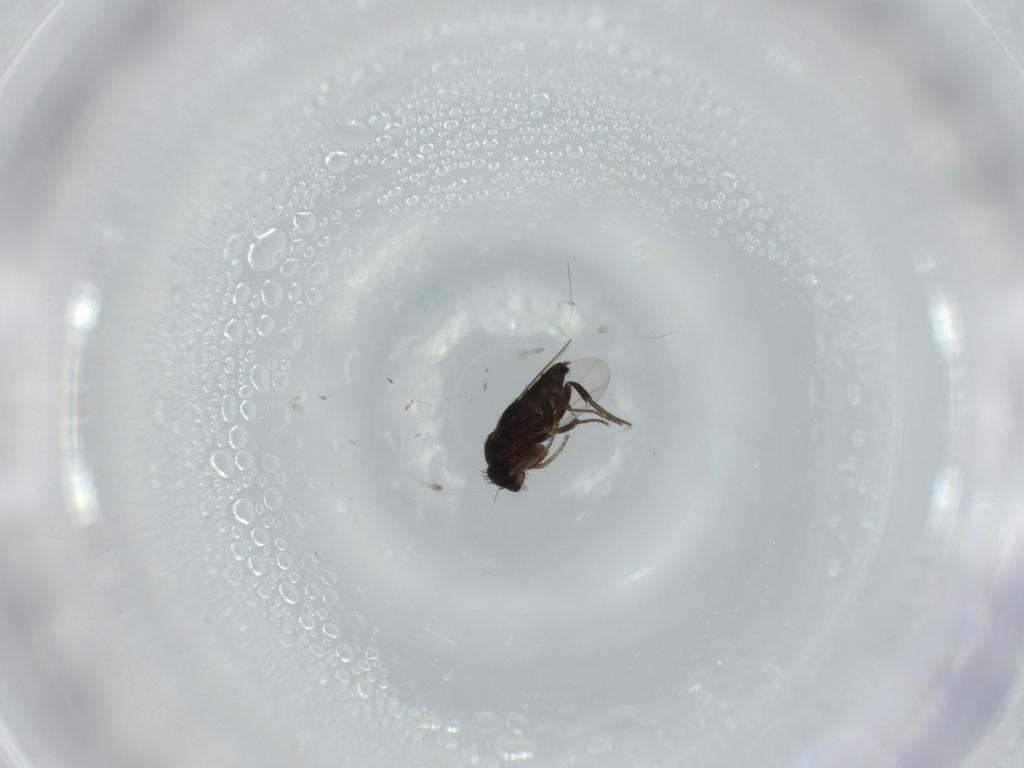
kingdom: Animalia
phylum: Arthropoda
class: Insecta
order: Diptera
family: Phoridae
